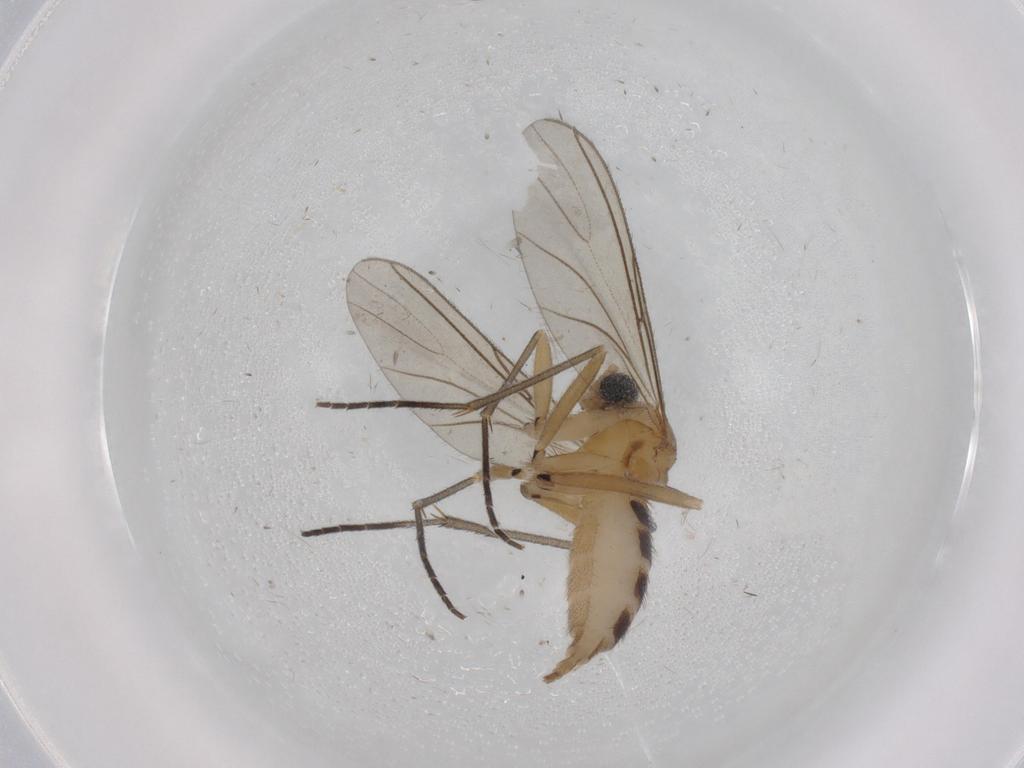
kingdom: Animalia
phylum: Arthropoda
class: Insecta
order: Diptera
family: Sciaridae
